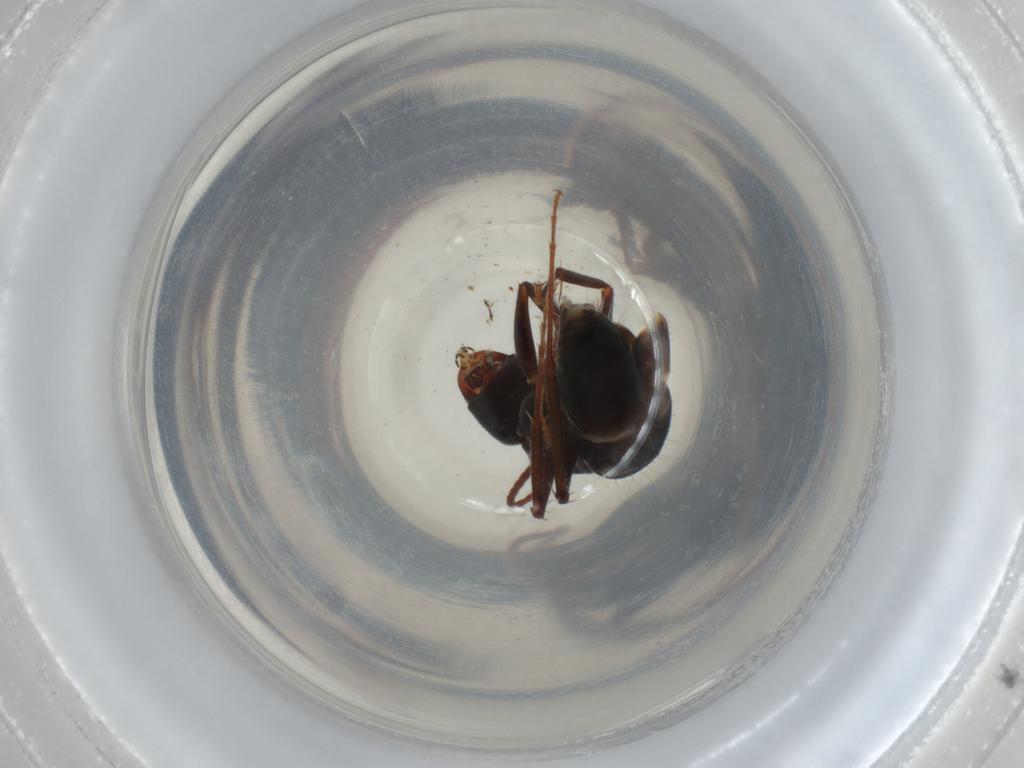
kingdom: Animalia
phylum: Arthropoda
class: Insecta
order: Hymenoptera
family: Formicidae
